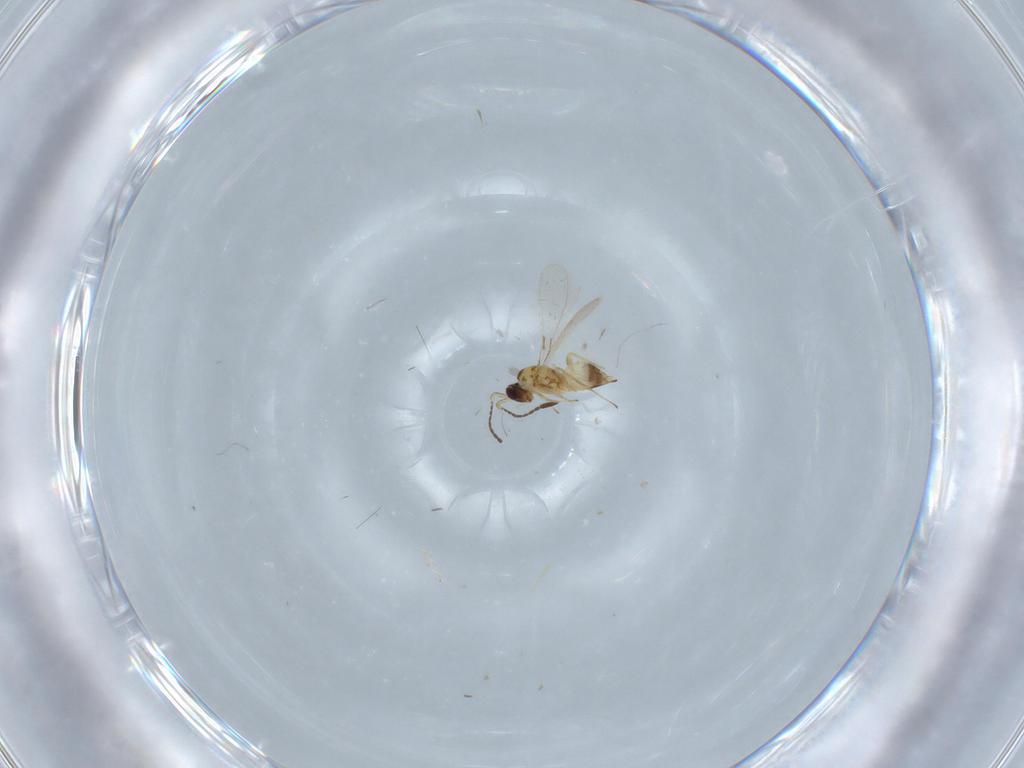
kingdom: Animalia
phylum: Arthropoda
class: Insecta
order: Hymenoptera
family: Mymaridae
